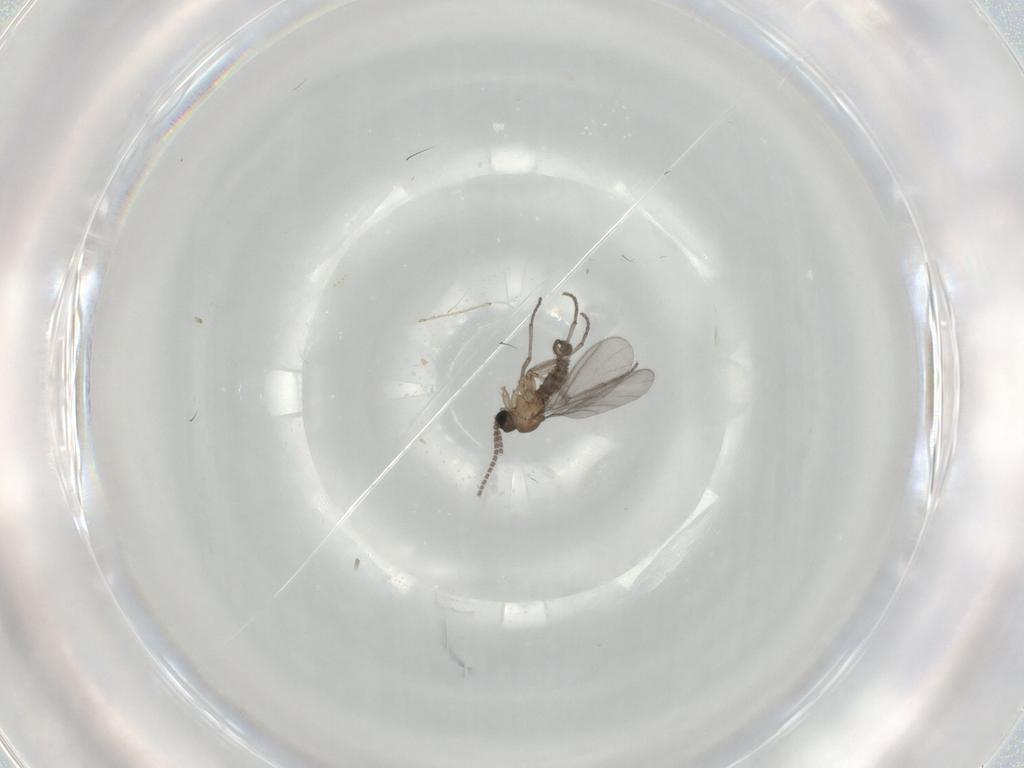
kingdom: Animalia
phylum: Arthropoda
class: Insecta
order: Diptera
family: Sciaridae
